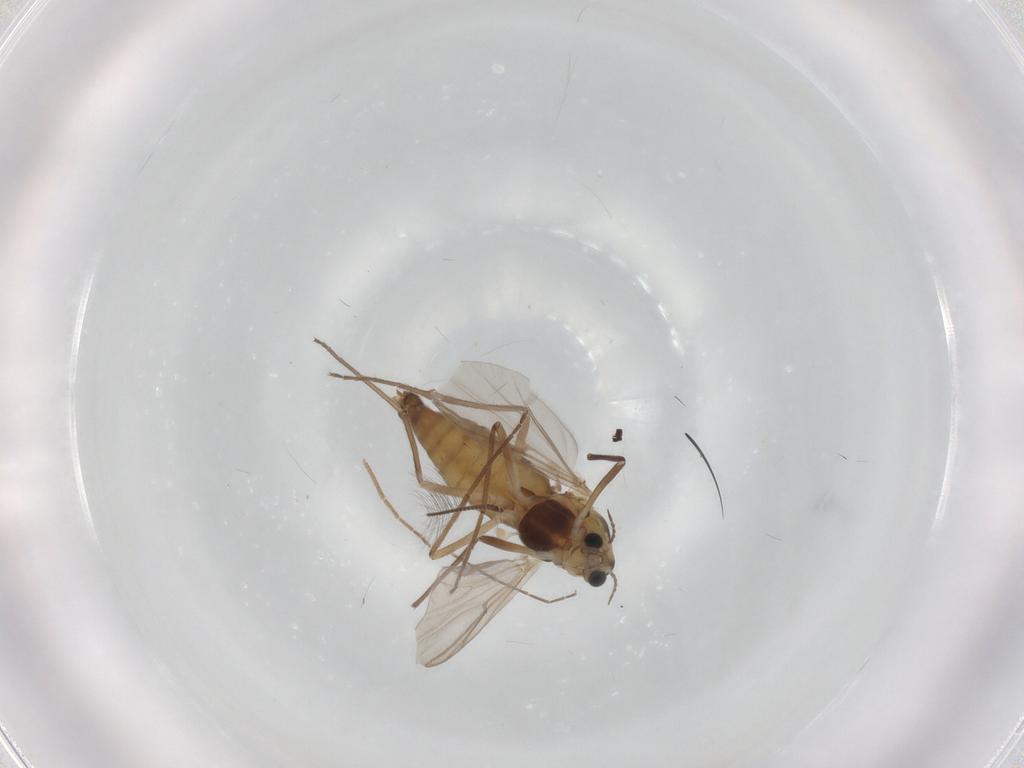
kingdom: Animalia
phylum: Arthropoda
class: Insecta
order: Diptera
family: Chironomidae
